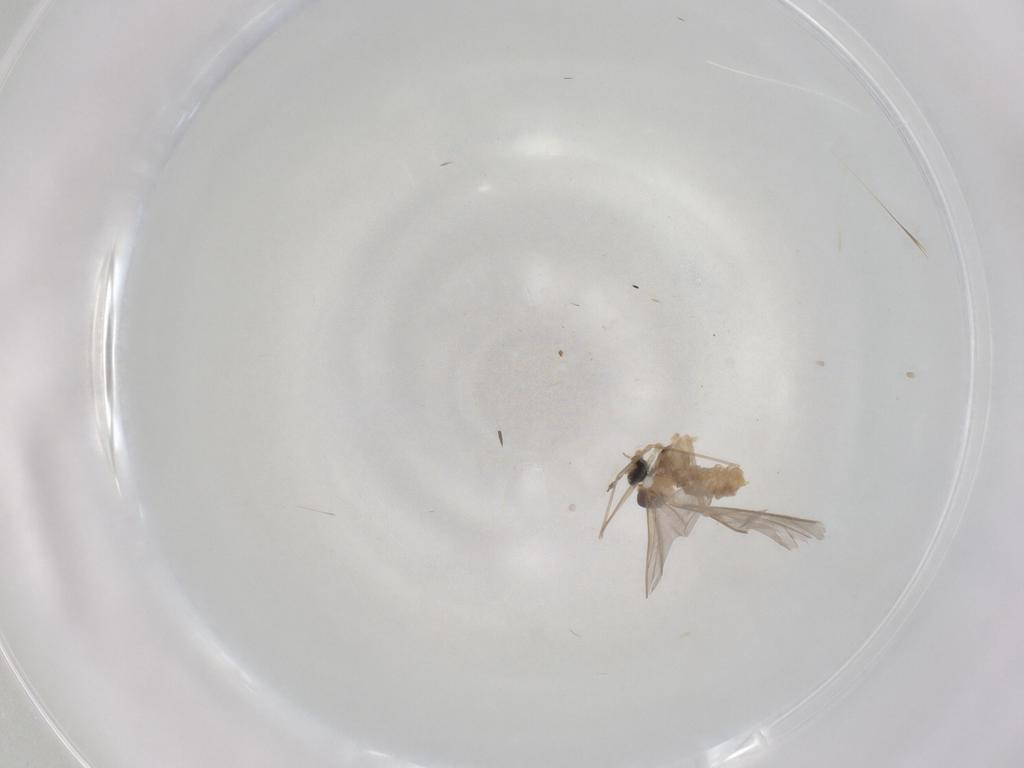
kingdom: Animalia
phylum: Arthropoda
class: Insecta
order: Diptera
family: Cecidomyiidae
